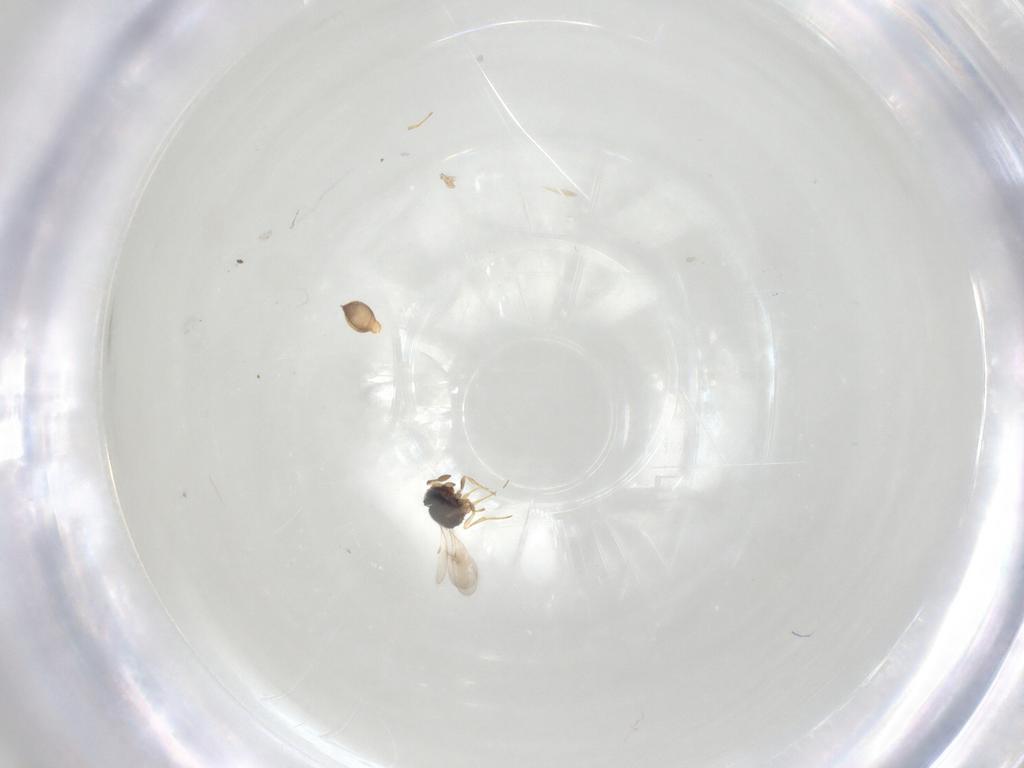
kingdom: Animalia
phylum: Arthropoda
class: Insecta
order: Hymenoptera
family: Scelionidae
